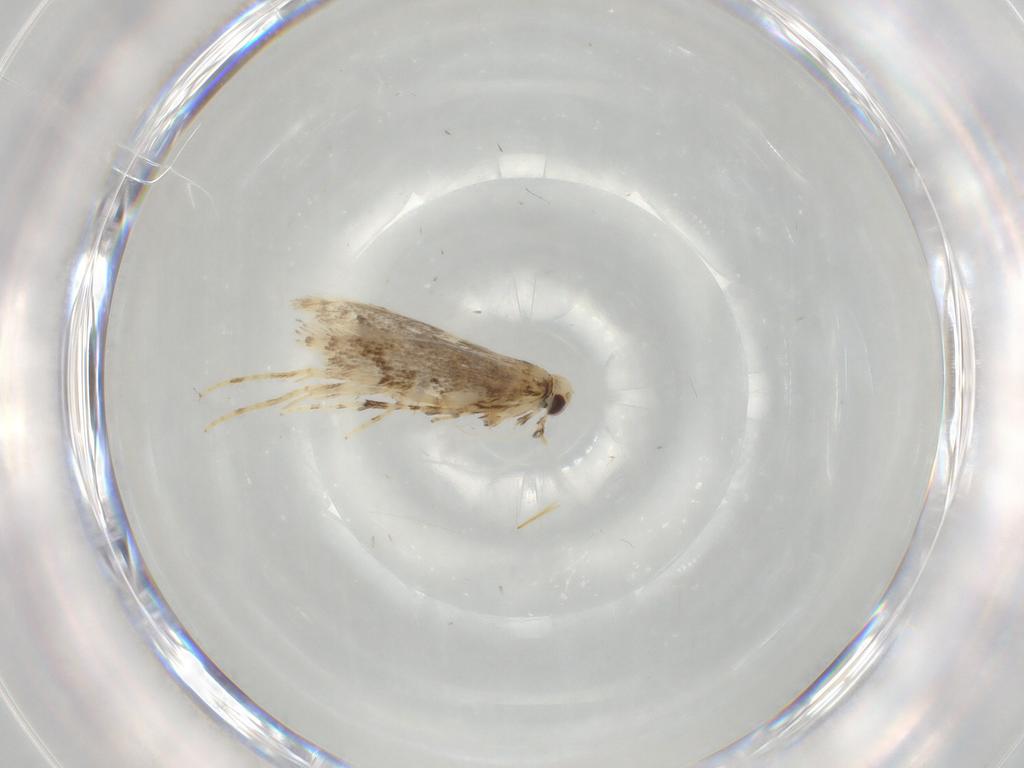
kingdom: Animalia
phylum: Arthropoda
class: Insecta
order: Lepidoptera
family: Gracillariidae
